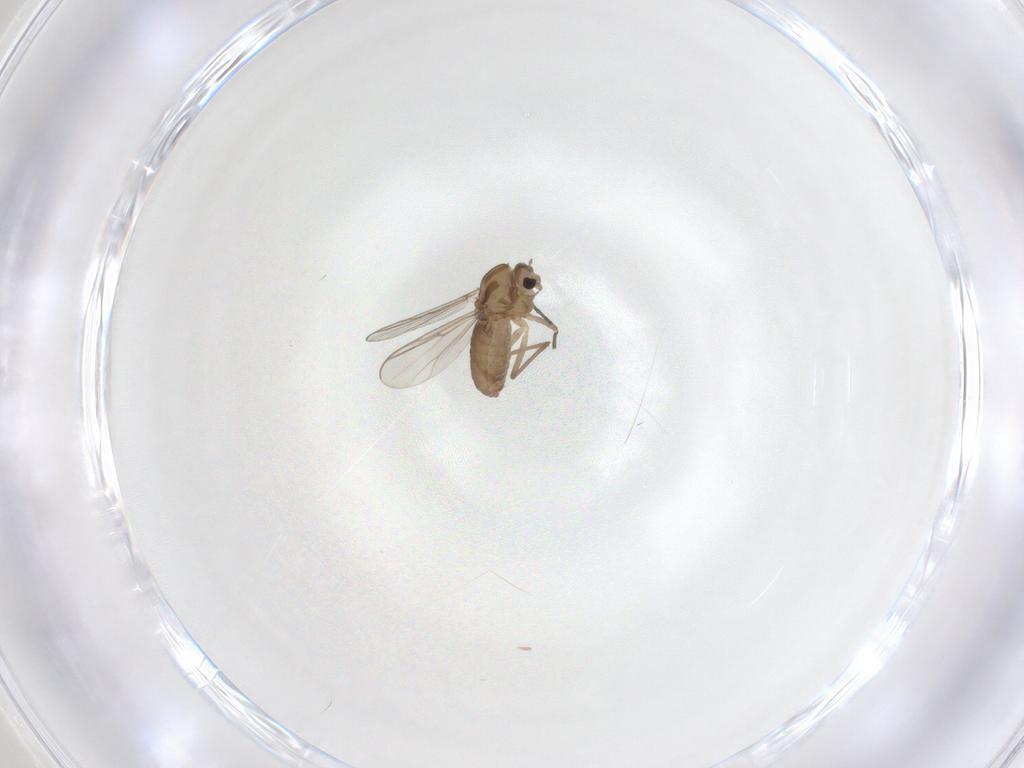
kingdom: Animalia
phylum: Arthropoda
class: Insecta
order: Diptera
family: Chironomidae
